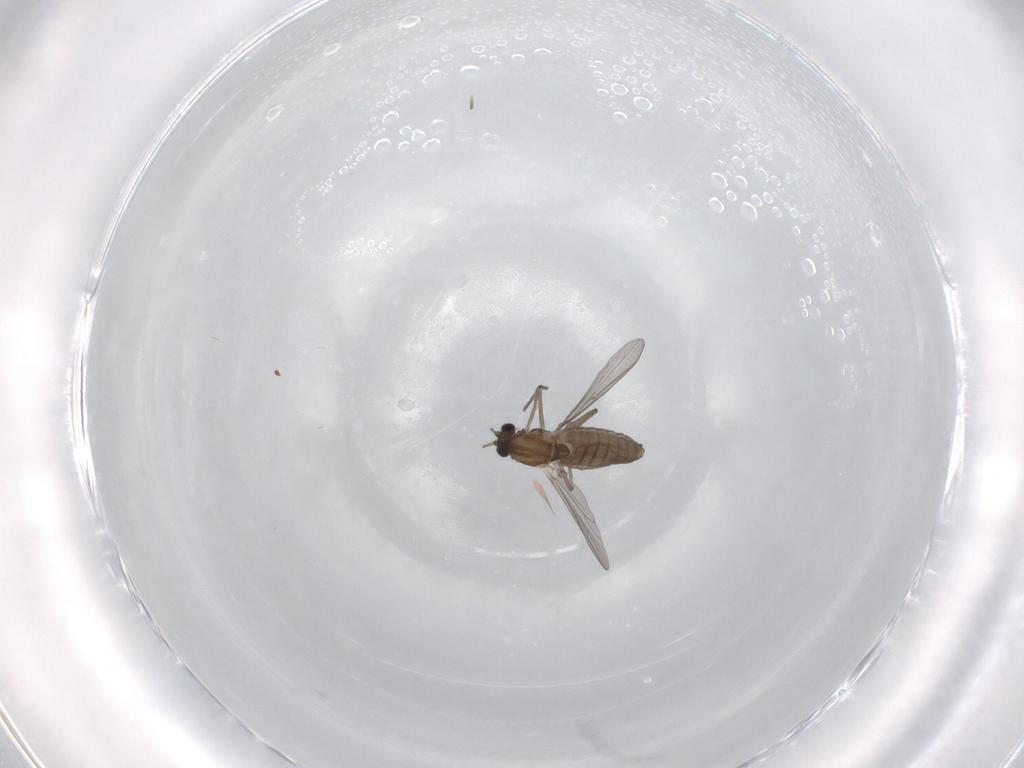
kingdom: Animalia
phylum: Arthropoda
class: Insecta
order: Diptera
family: Chironomidae
